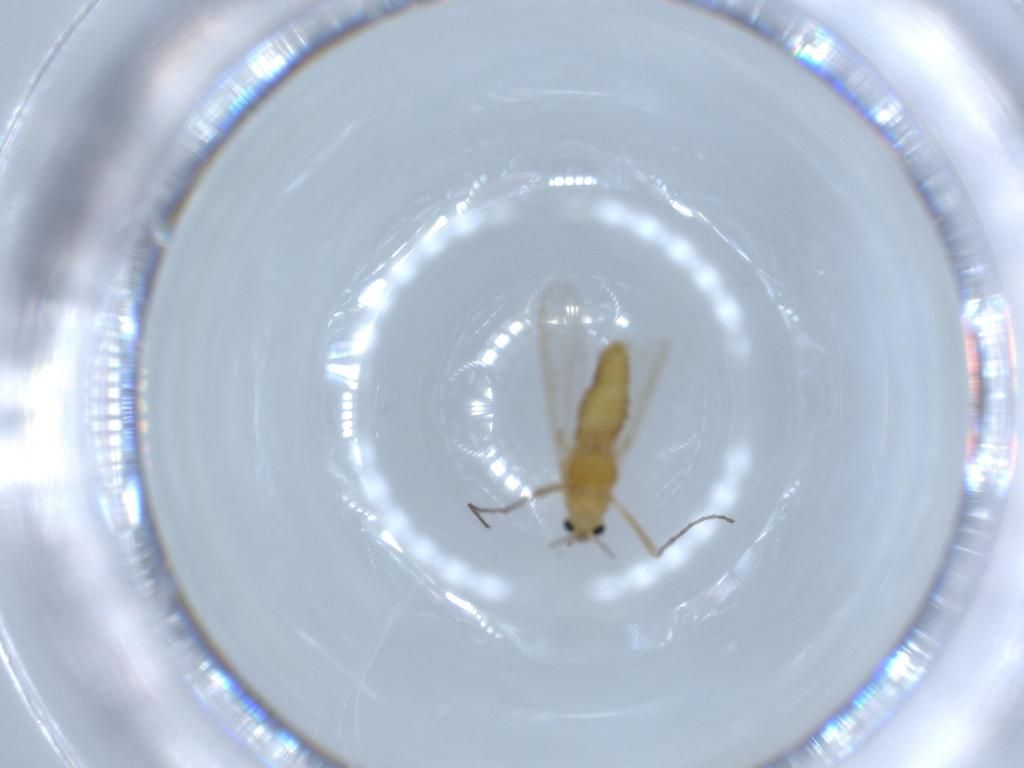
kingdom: Animalia
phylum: Arthropoda
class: Insecta
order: Diptera
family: Cecidomyiidae
